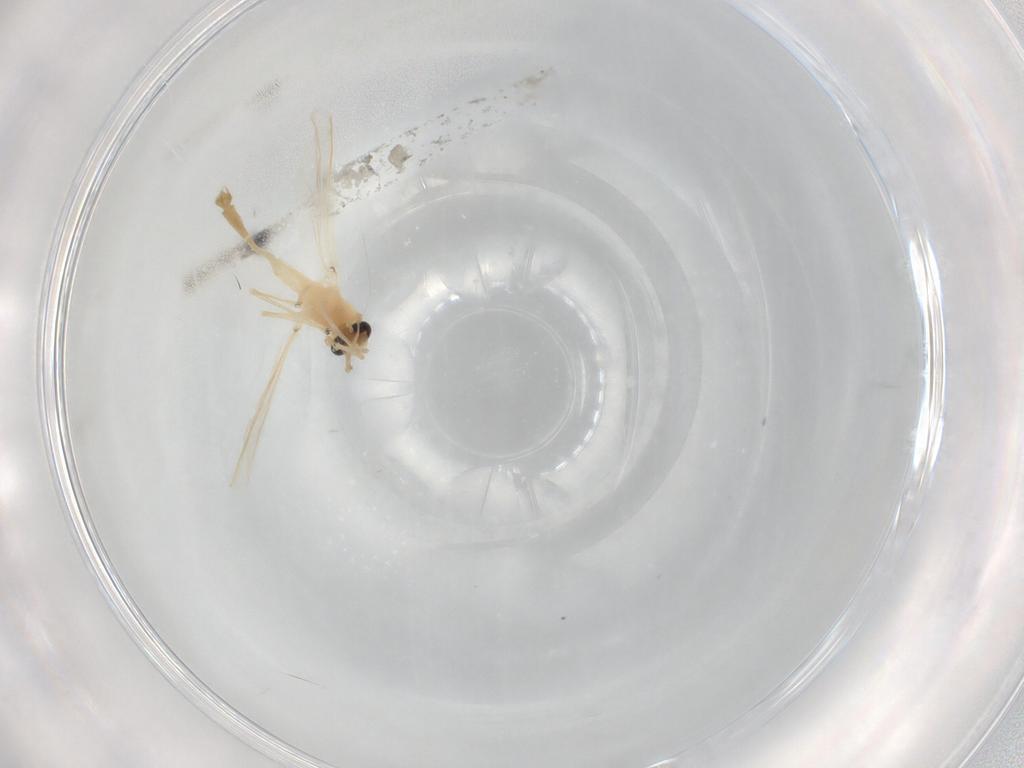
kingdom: Animalia
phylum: Arthropoda
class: Insecta
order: Diptera
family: Chironomidae
